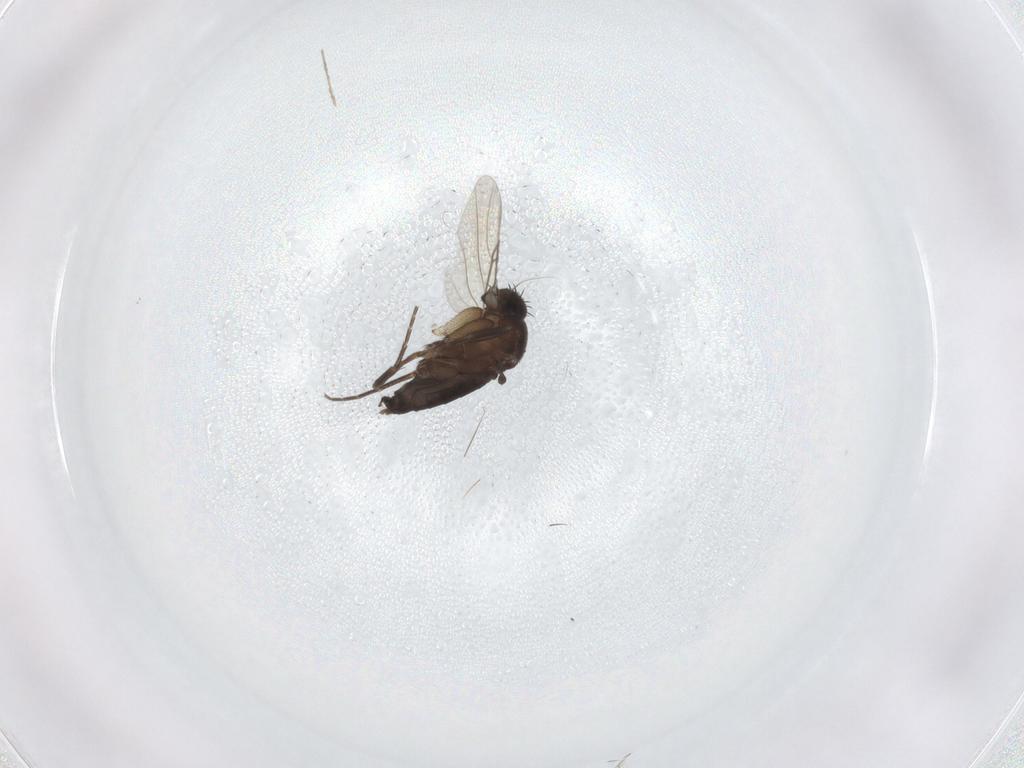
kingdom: Animalia
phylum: Arthropoda
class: Insecta
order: Diptera
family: Phoridae
